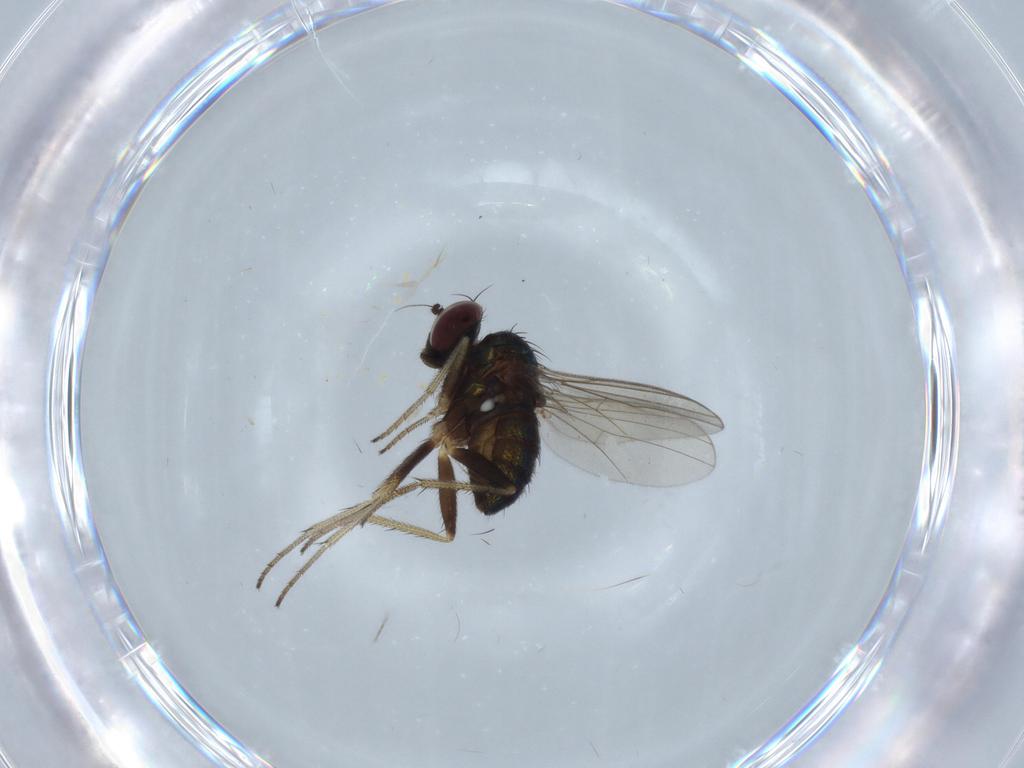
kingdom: Animalia
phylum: Arthropoda
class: Insecta
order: Diptera
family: Dolichopodidae
